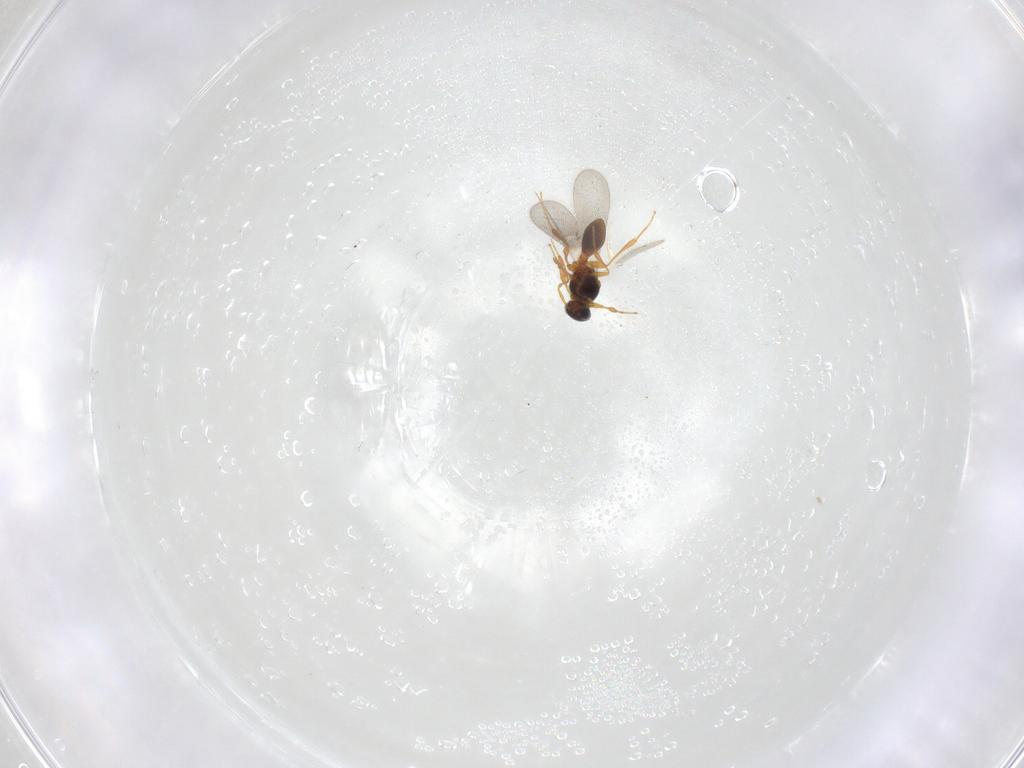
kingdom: Animalia
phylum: Arthropoda
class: Insecta
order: Hymenoptera
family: Platygastridae
